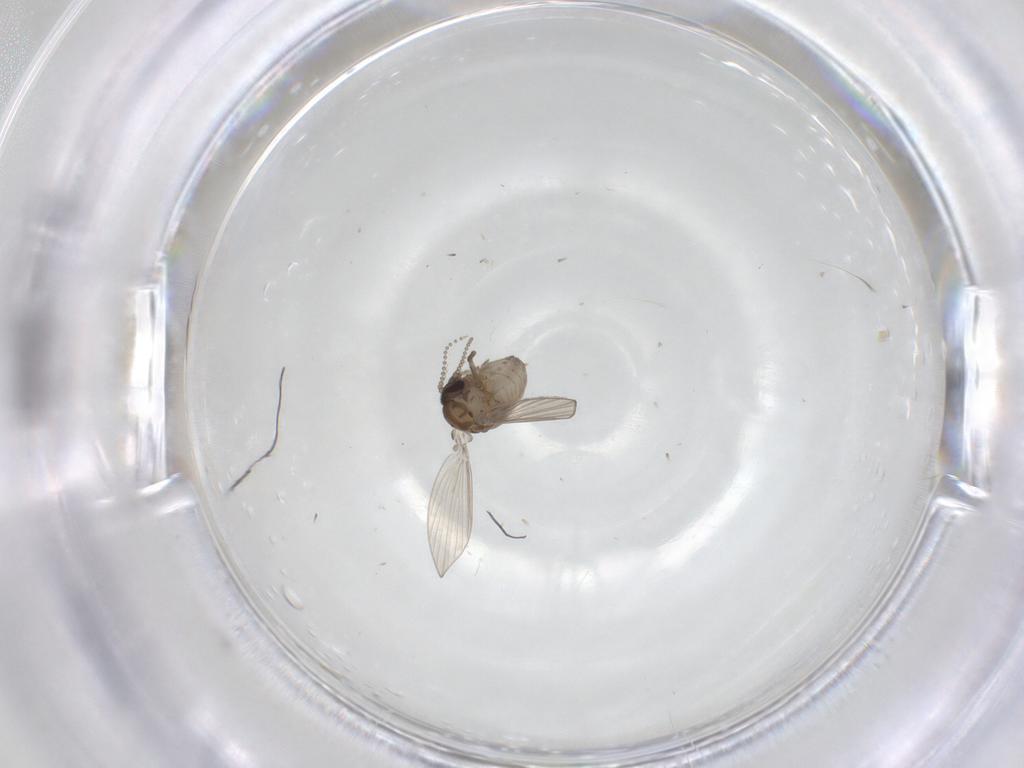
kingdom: Animalia
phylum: Arthropoda
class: Insecta
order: Diptera
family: Psychodidae
